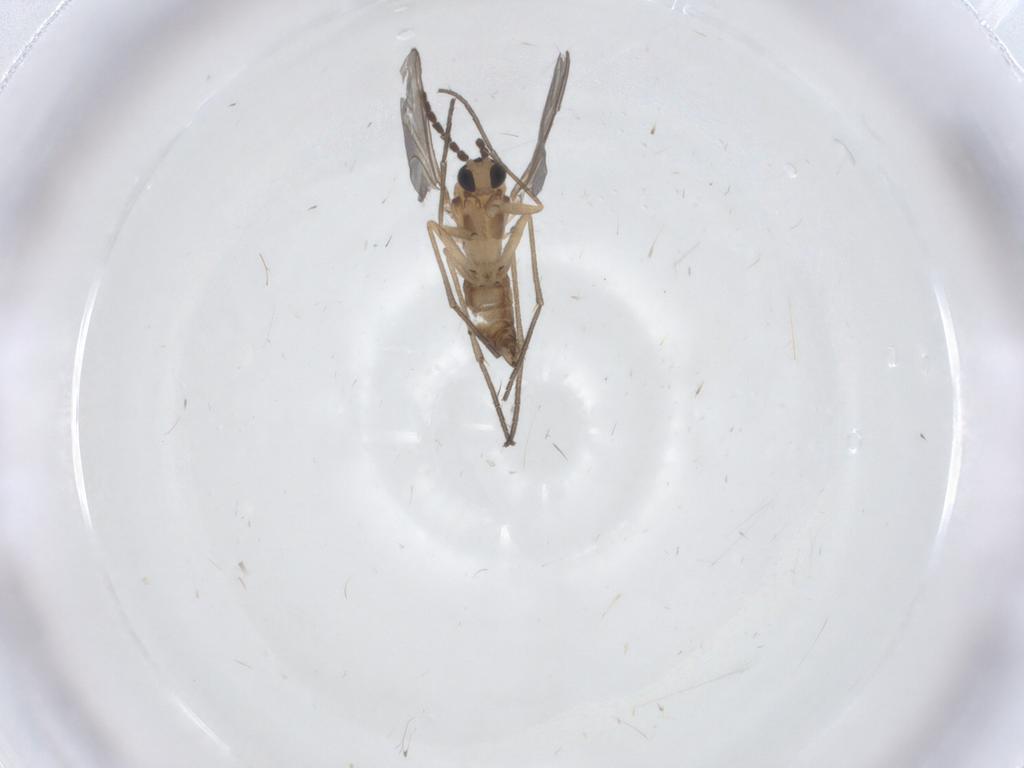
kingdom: Animalia
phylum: Arthropoda
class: Insecta
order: Diptera
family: Sciaridae
